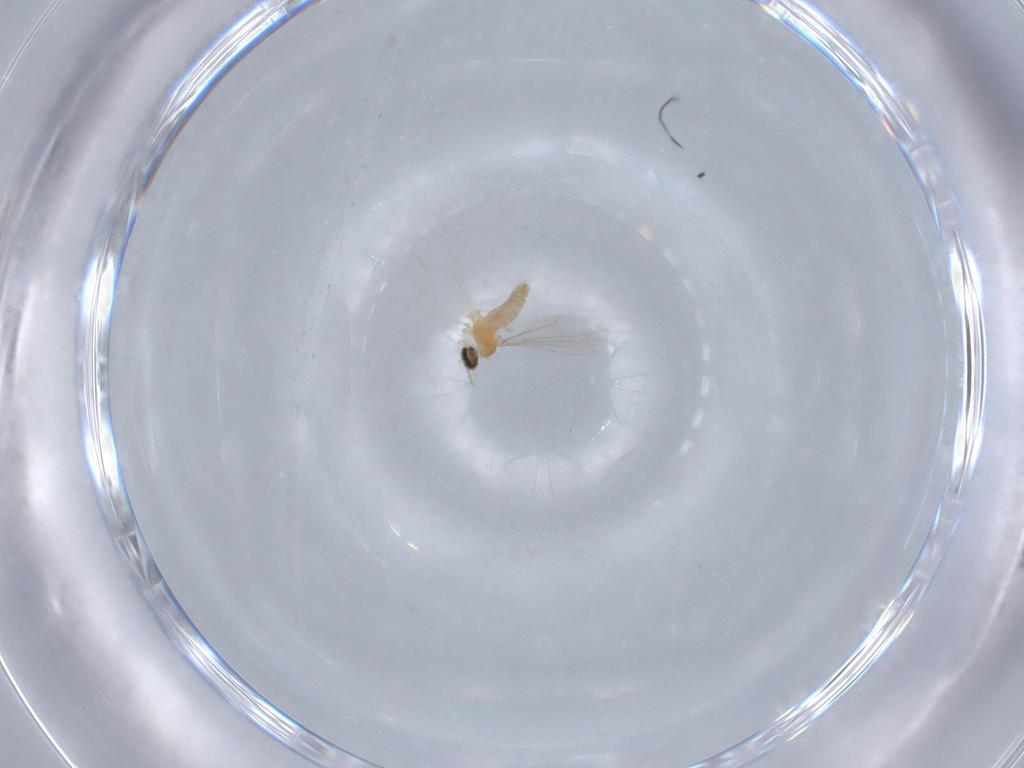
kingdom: Animalia
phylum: Arthropoda
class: Insecta
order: Diptera
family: Cecidomyiidae
